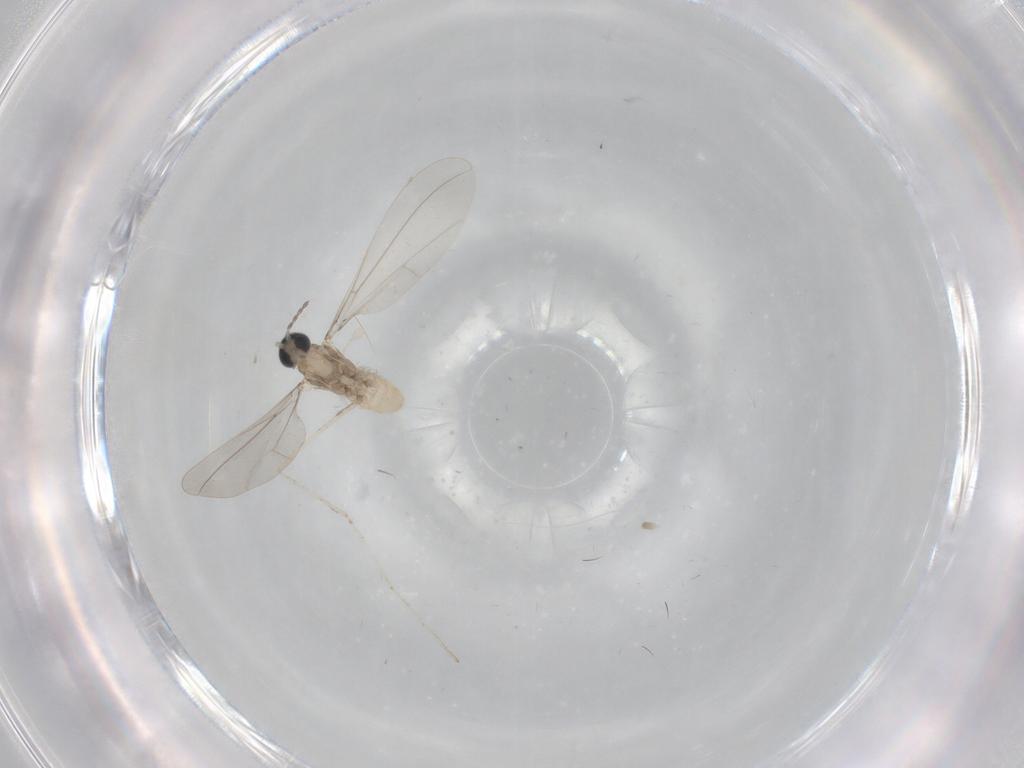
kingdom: Animalia
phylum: Arthropoda
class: Insecta
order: Diptera
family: Cecidomyiidae
